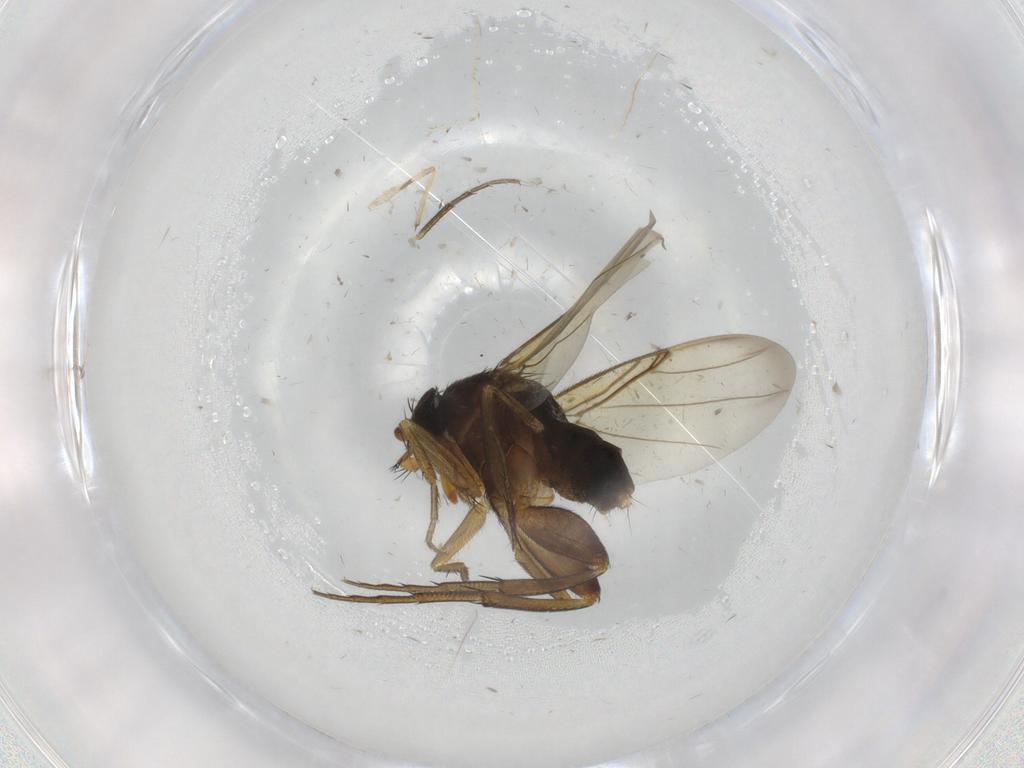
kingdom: Animalia
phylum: Arthropoda
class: Insecta
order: Diptera
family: Phoridae
